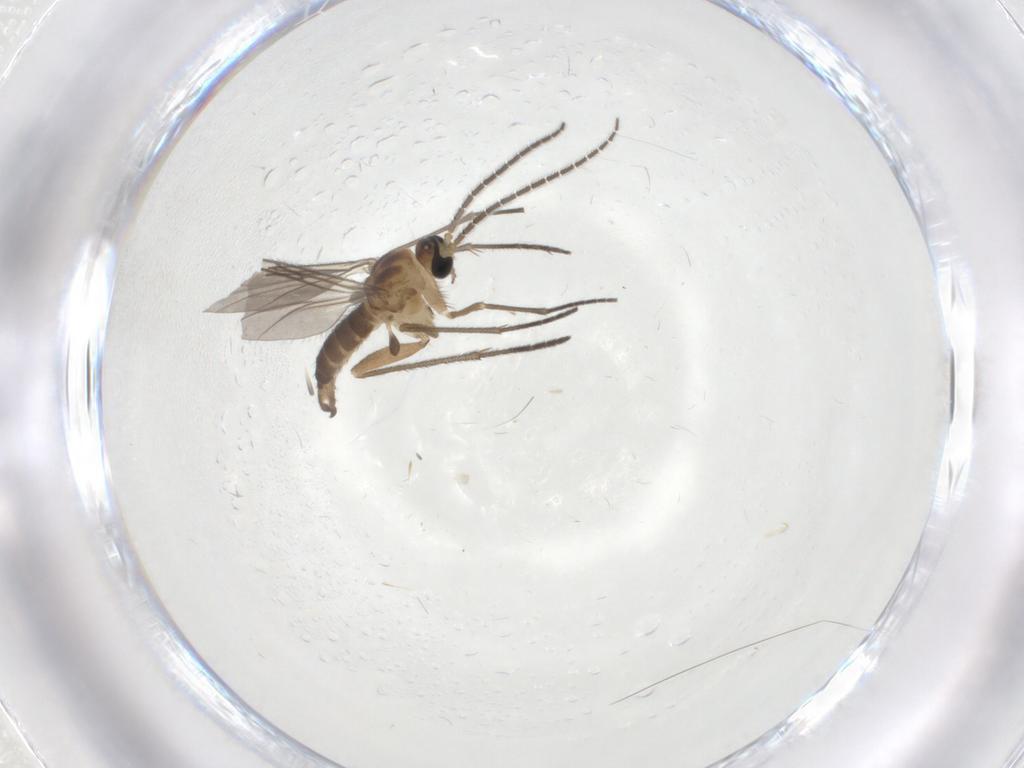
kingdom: Animalia
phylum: Arthropoda
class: Insecta
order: Diptera
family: Sciaridae
